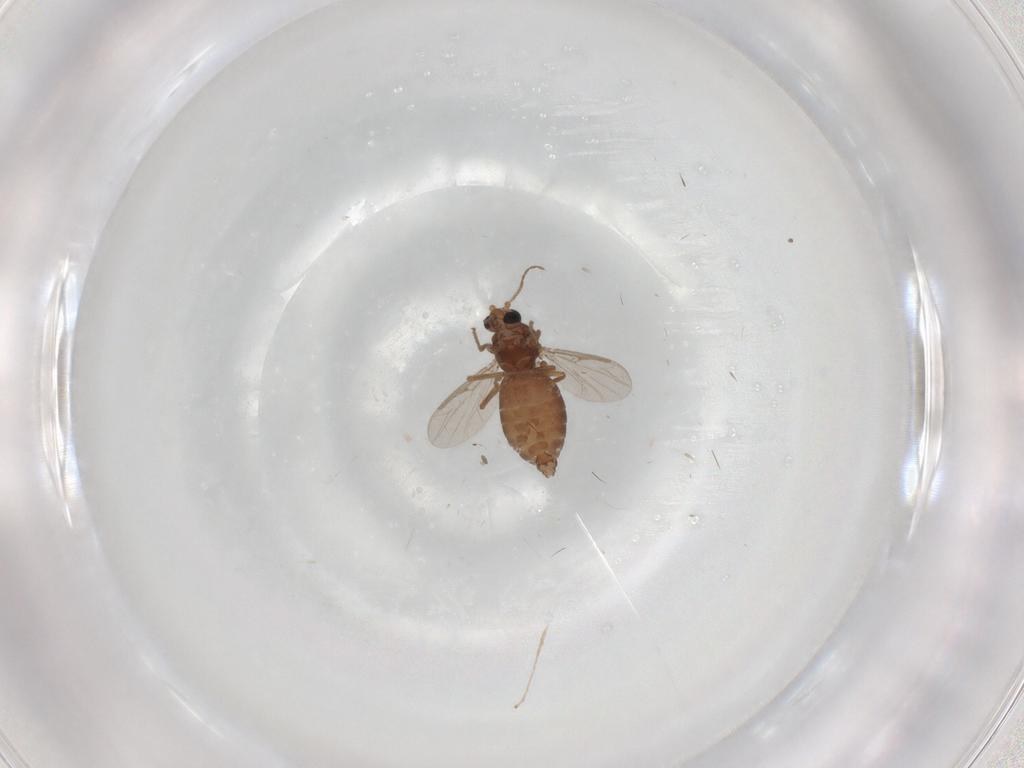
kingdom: Animalia
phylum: Arthropoda
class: Insecta
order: Diptera
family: Ceratopogonidae
